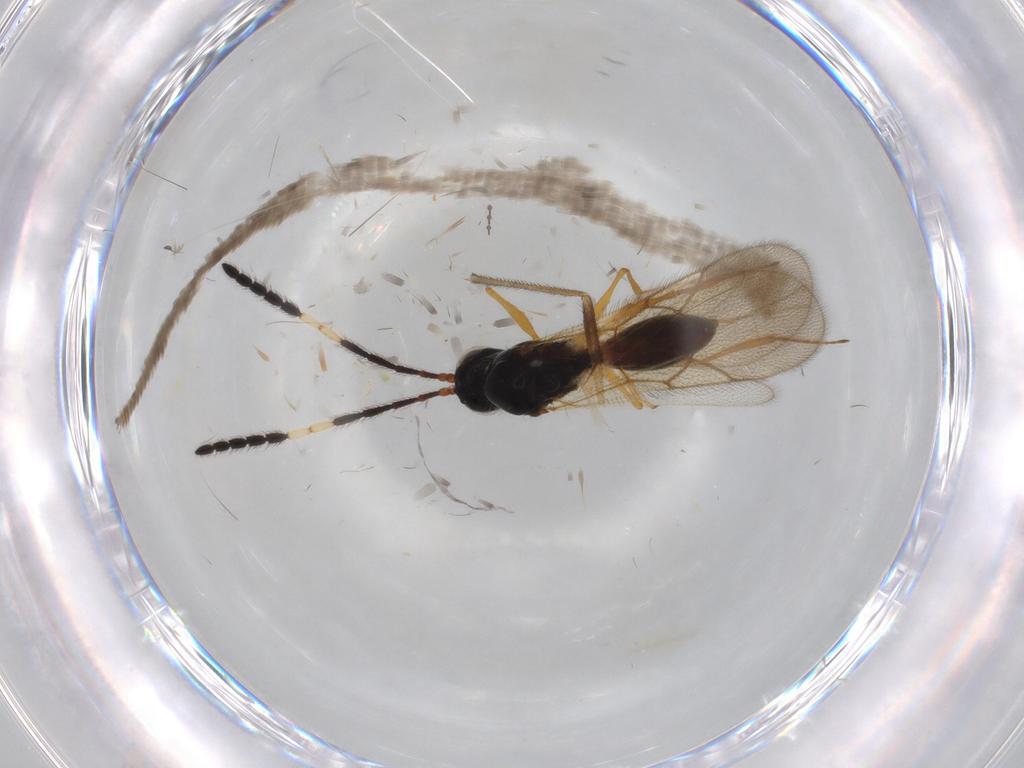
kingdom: Animalia
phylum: Arthropoda
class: Insecta
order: Hymenoptera
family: Figitidae
